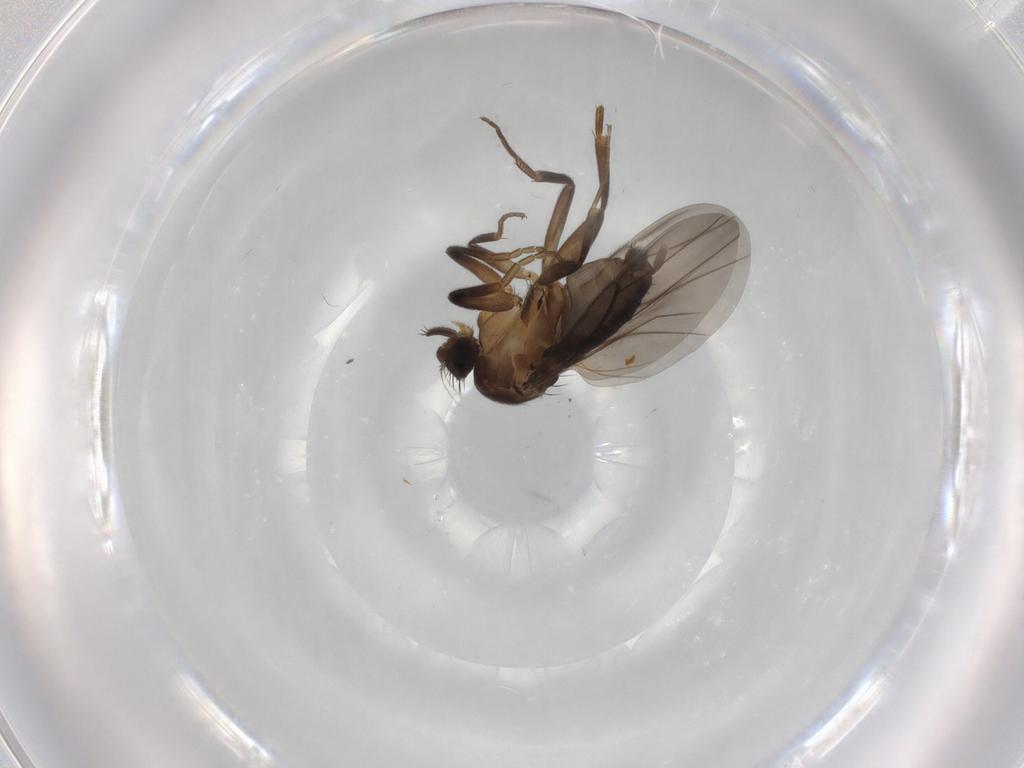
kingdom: Animalia
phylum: Arthropoda
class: Insecta
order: Diptera
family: Phoridae
